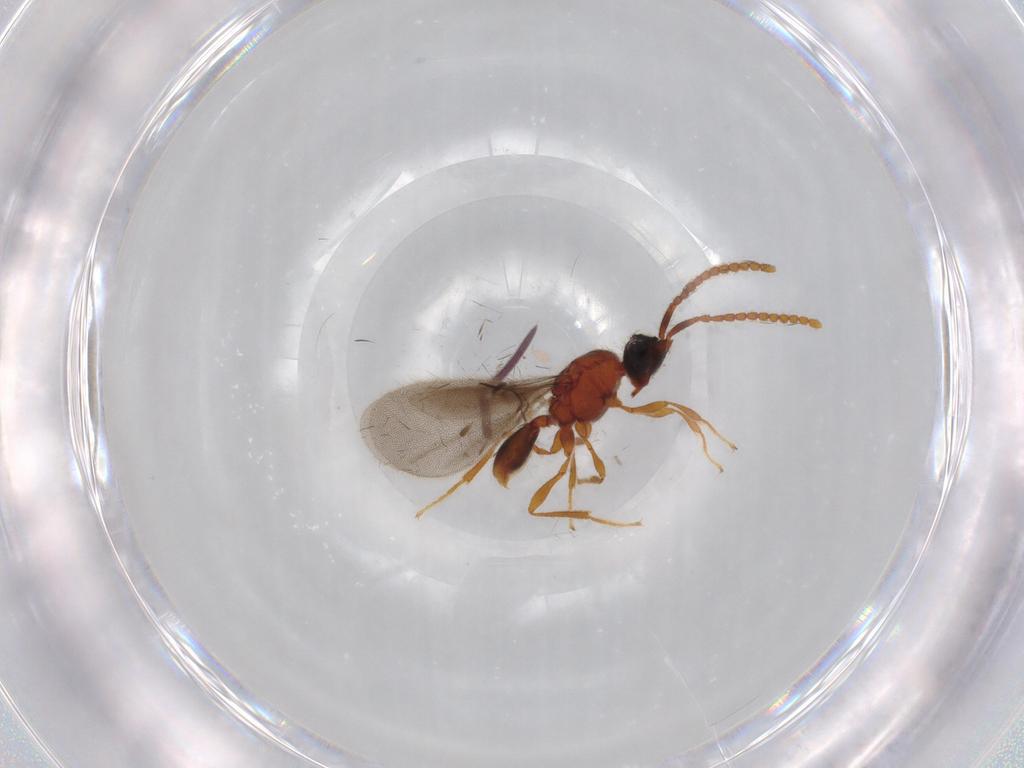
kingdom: Animalia
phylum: Arthropoda
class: Insecta
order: Hymenoptera
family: Diapriidae
